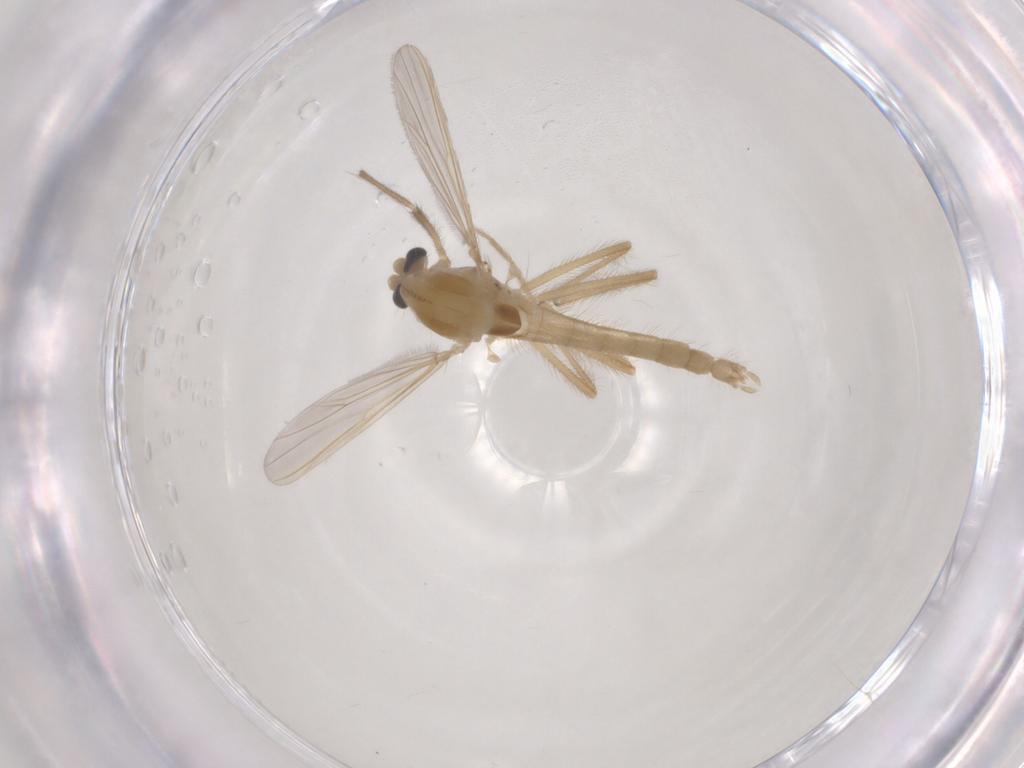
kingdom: Animalia
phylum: Arthropoda
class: Insecta
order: Diptera
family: Chironomidae
